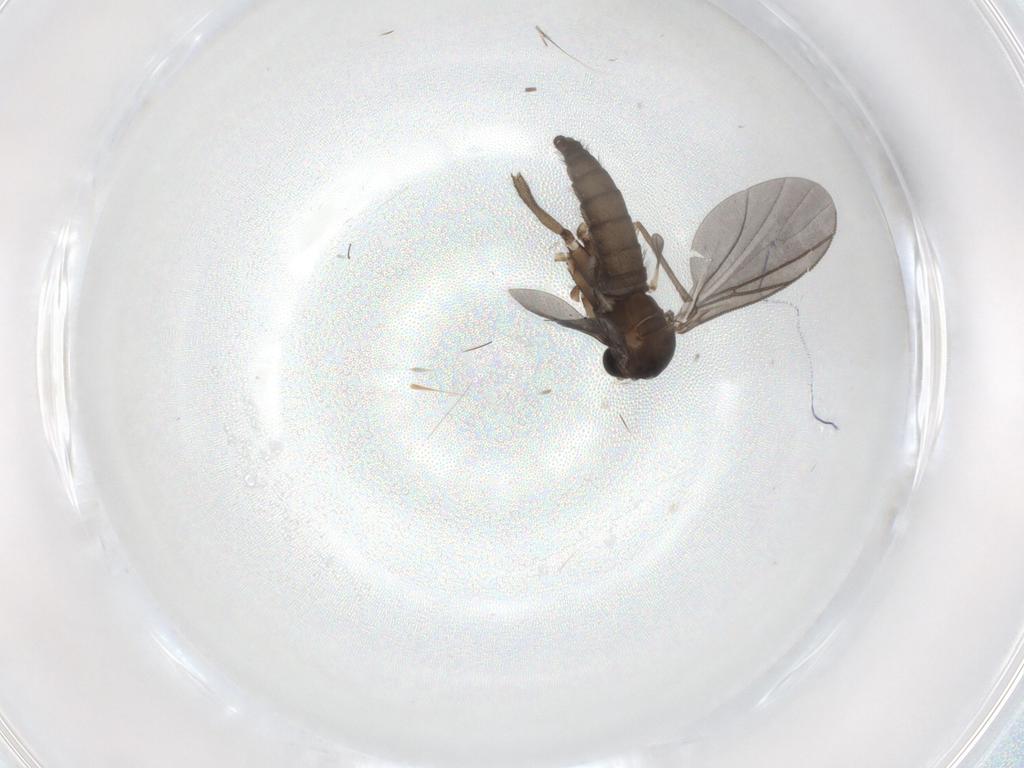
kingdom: Animalia
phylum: Arthropoda
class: Insecta
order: Diptera
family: Sciaridae
